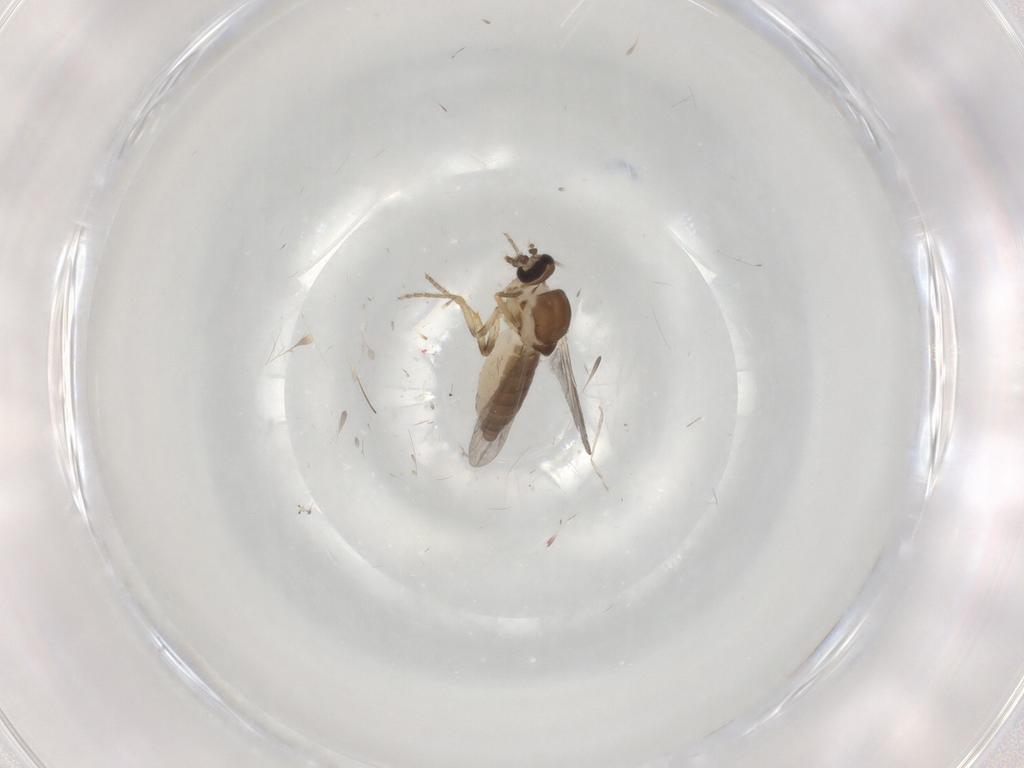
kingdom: Animalia
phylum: Arthropoda
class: Insecta
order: Diptera
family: Ceratopogonidae
